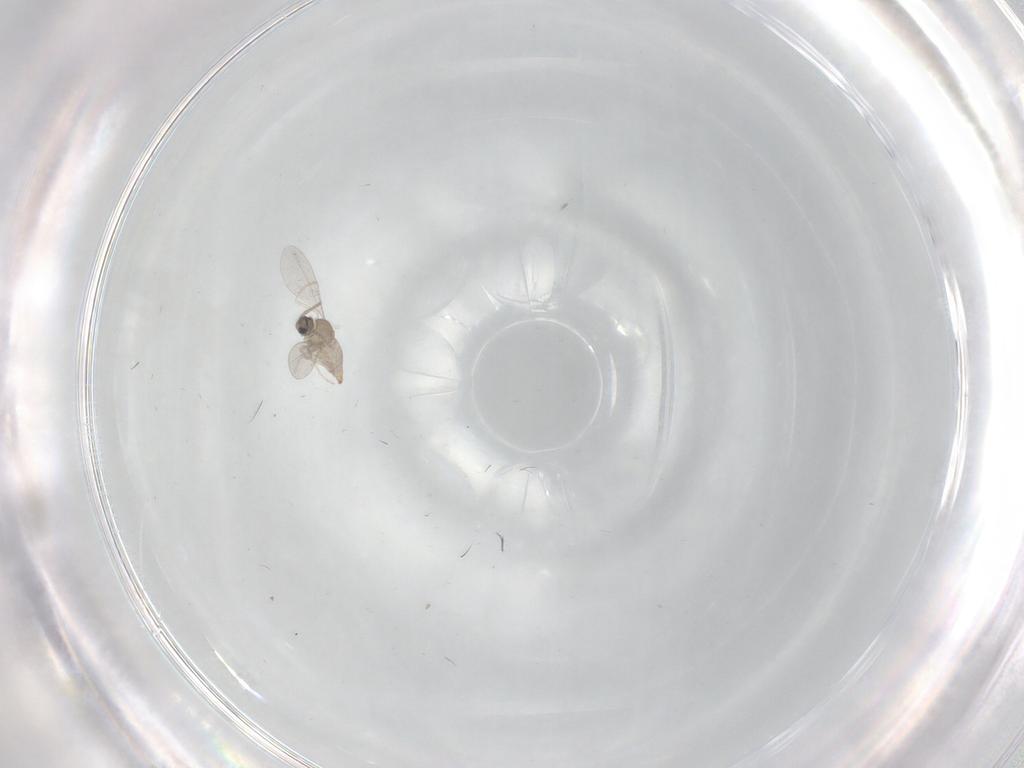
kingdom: Animalia
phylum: Arthropoda
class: Insecta
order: Diptera
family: Cecidomyiidae
